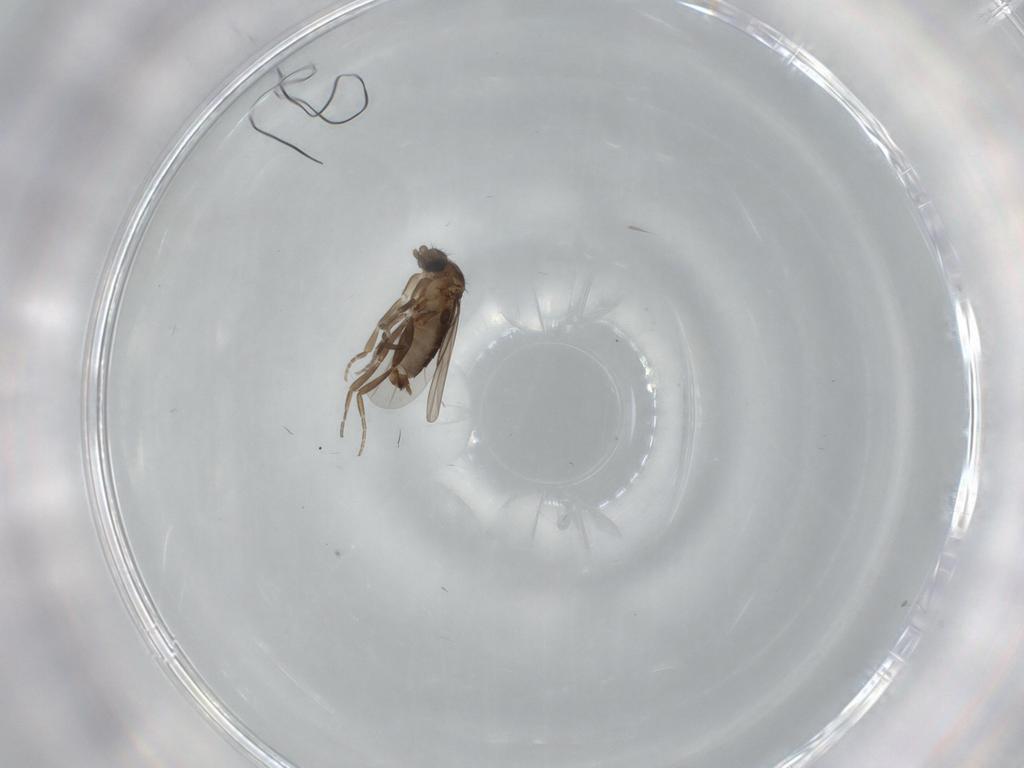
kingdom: Animalia
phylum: Arthropoda
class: Insecta
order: Diptera
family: Phoridae
